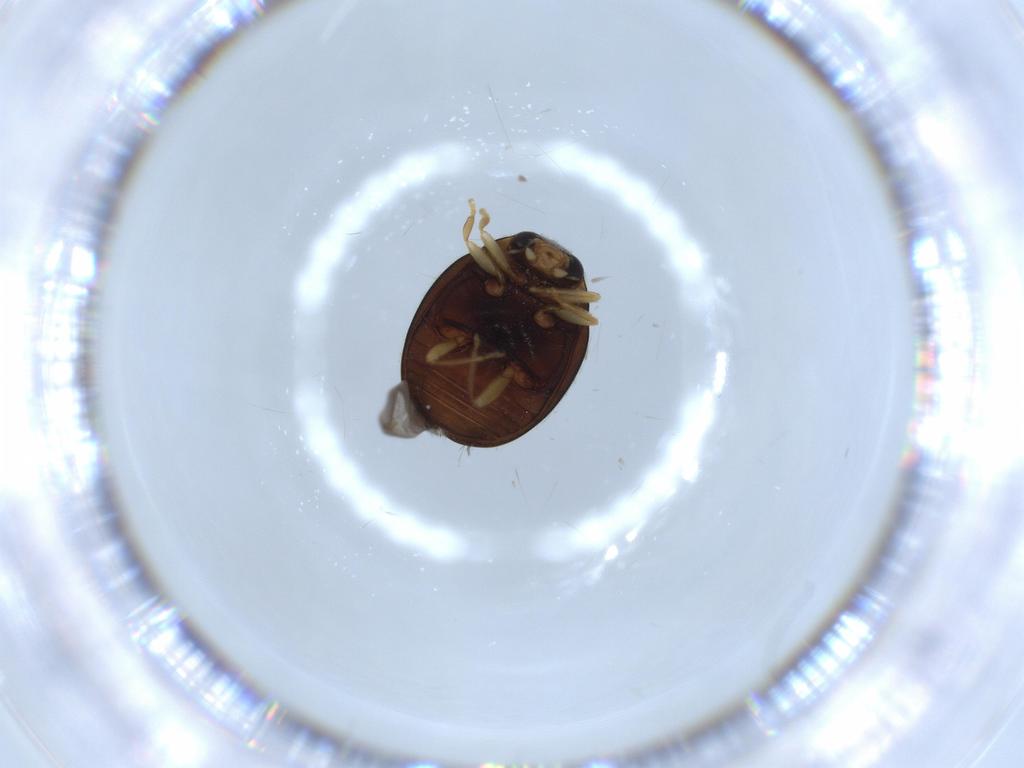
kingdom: Animalia
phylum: Arthropoda
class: Insecta
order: Coleoptera
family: Coccinellidae
